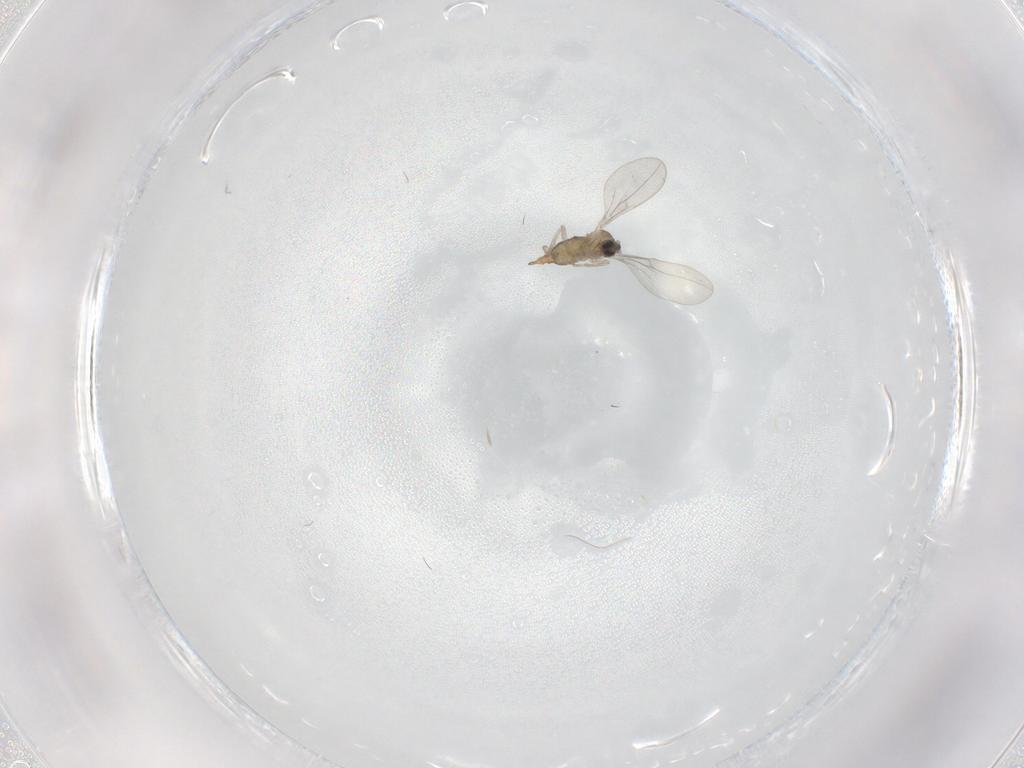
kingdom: Animalia
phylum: Arthropoda
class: Insecta
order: Diptera
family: Cecidomyiidae
